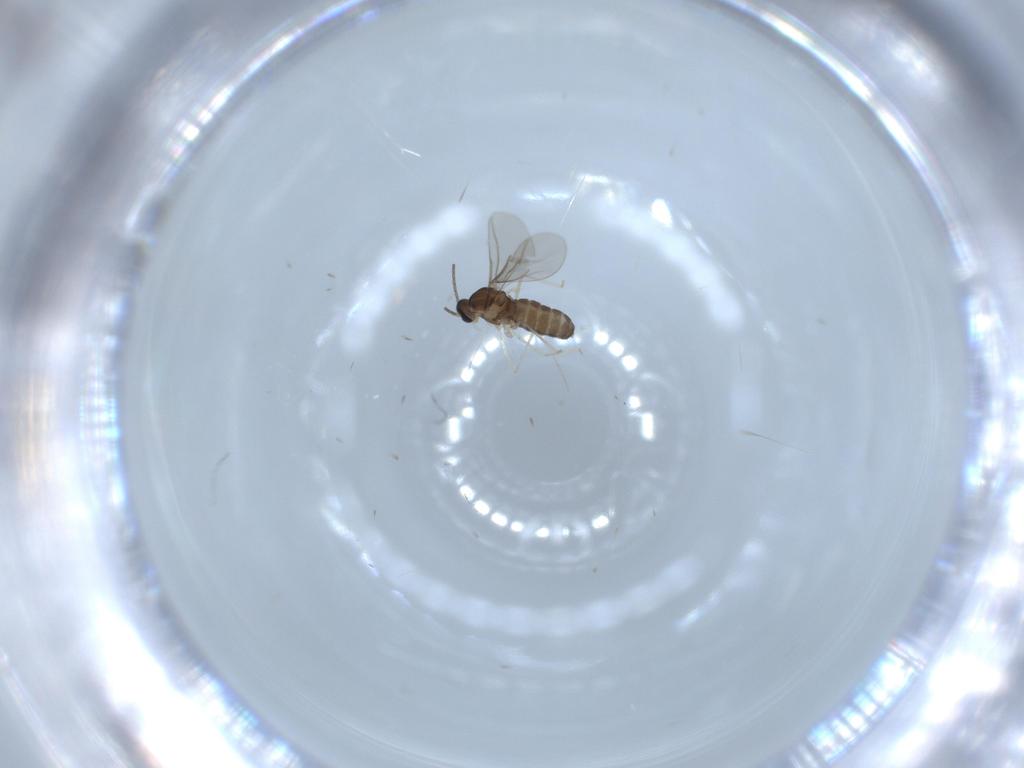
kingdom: Animalia
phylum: Arthropoda
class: Insecta
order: Diptera
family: Cecidomyiidae
